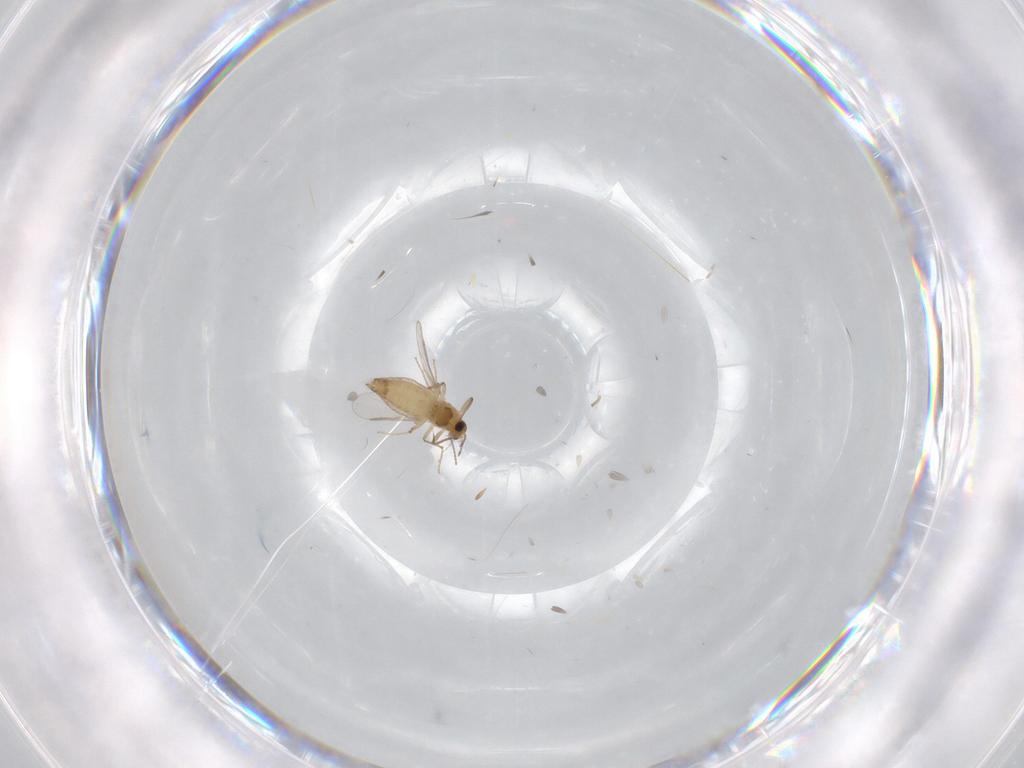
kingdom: Animalia
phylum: Arthropoda
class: Insecta
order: Diptera
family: Chironomidae
